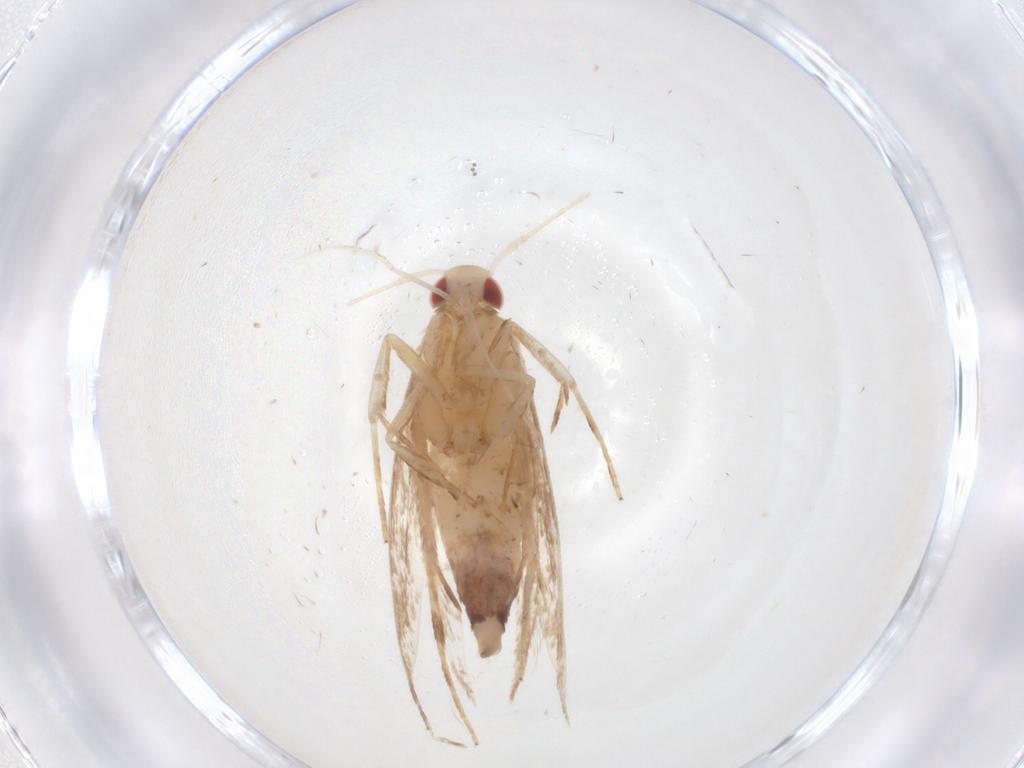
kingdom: Animalia
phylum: Arthropoda
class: Insecta
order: Lepidoptera
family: Cosmopterigidae
